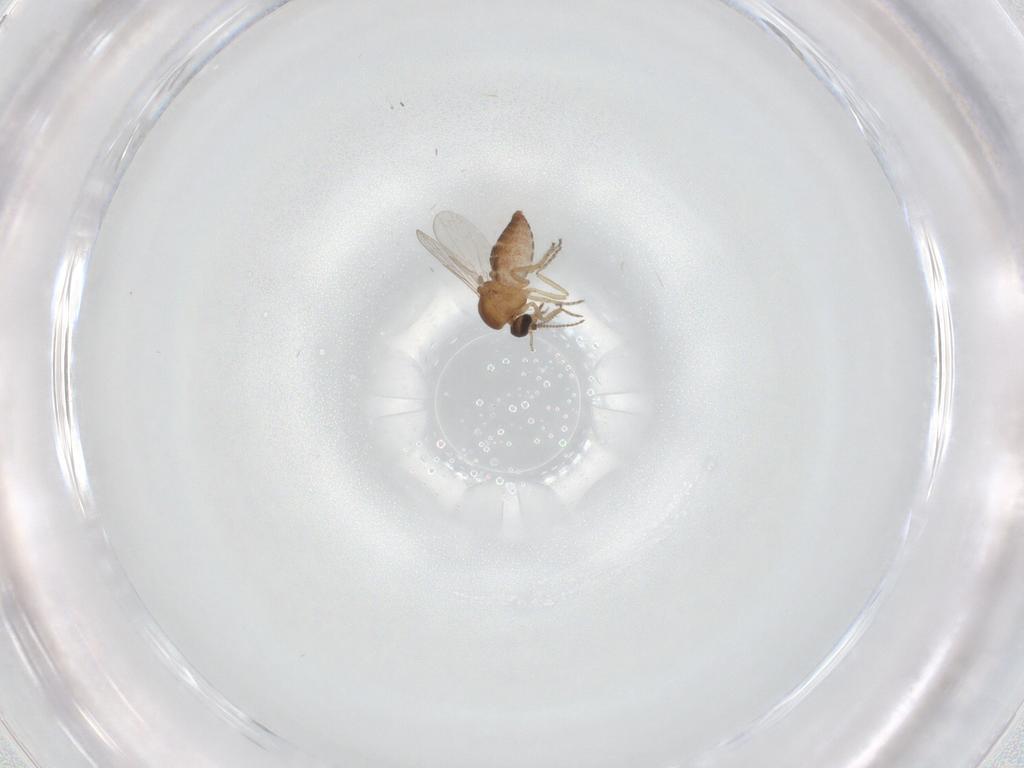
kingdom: Animalia
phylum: Arthropoda
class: Insecta
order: Diptera
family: Ceratopogonidae
